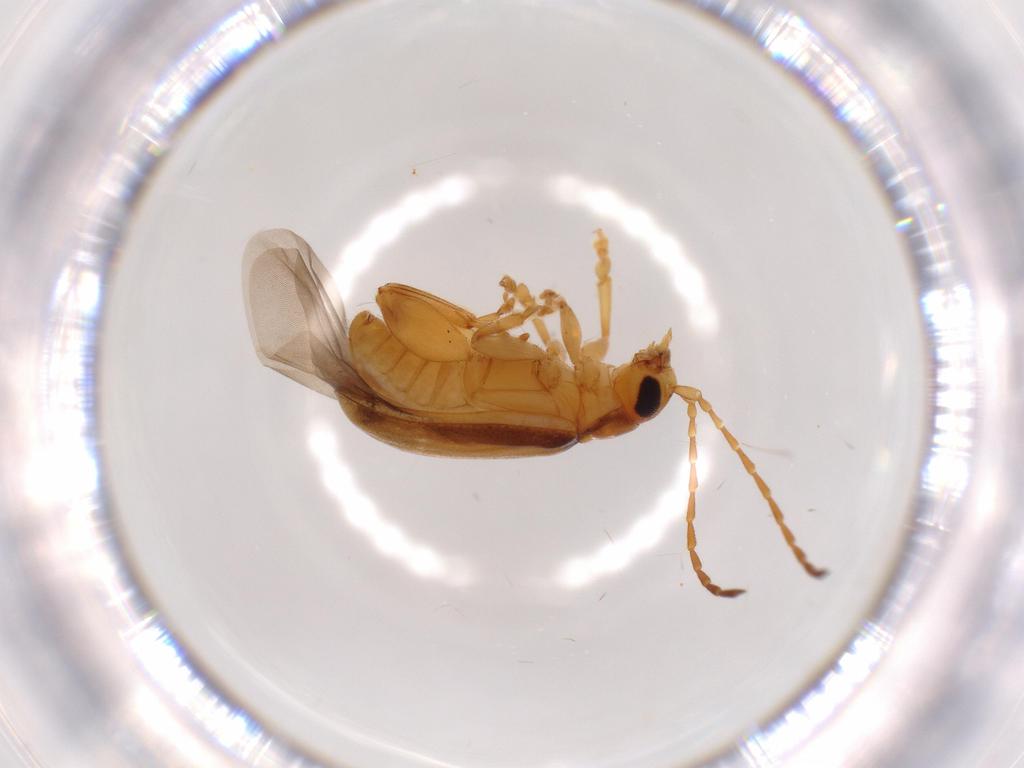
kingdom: Animalia
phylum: Arthropoda
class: Insecta
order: Coleoptera
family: Chrysomelidae
